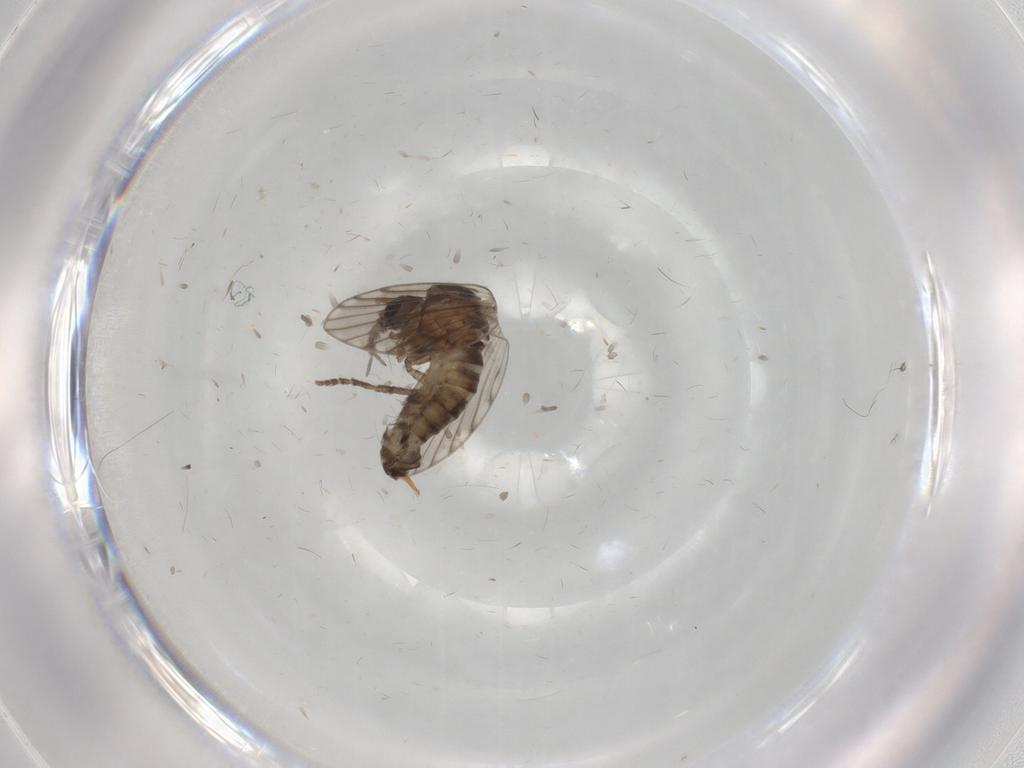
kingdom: Animalia
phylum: Arthropoda
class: Insecta
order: Diptera
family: Psychodidae
